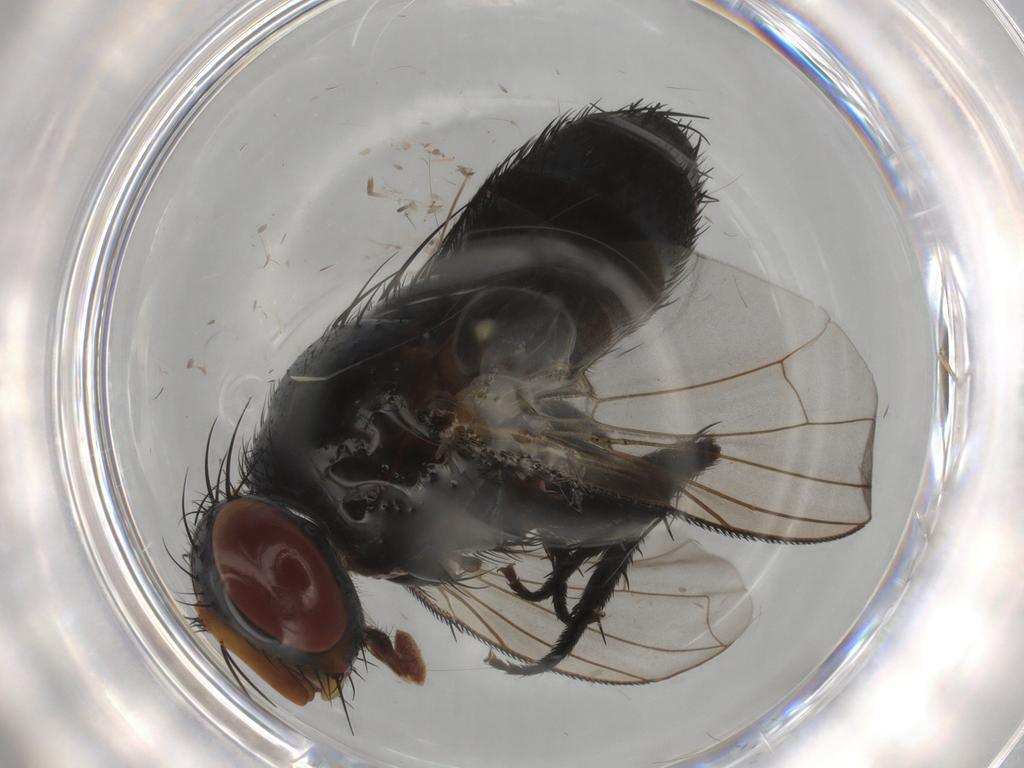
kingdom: Animalia
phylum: Arthropoda
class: Insecta
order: Diptera
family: Tachinidae
